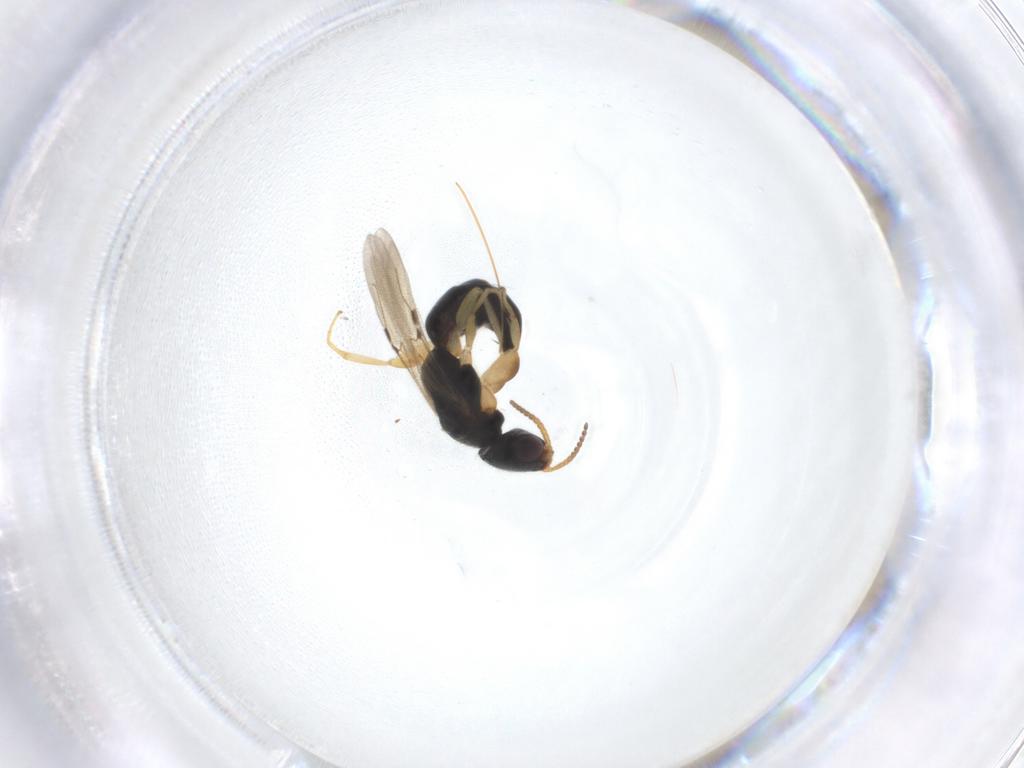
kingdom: Animalia
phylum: Arthropoda
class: Insecta
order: Hymenoptera
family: Bethylidae
